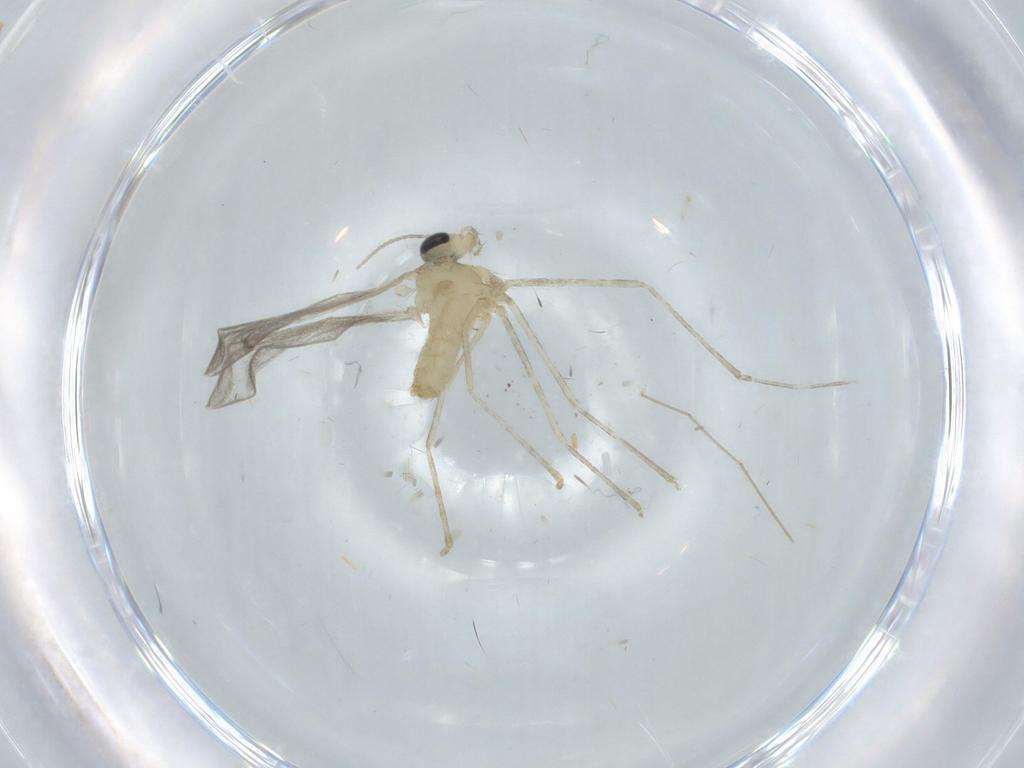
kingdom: Animalia
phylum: Arthropoda
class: Insecta
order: Diptera
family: Cecidomyiidae
